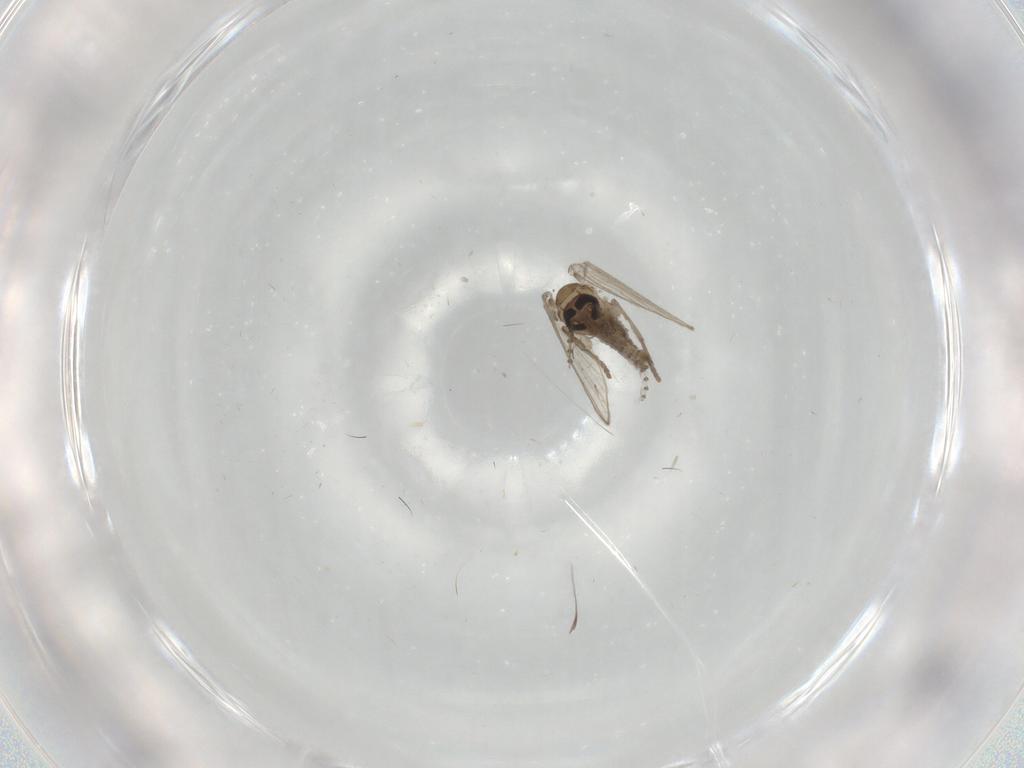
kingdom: Animalia
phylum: Arthropoda
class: Insecta
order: Diptera
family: Psychodidae
